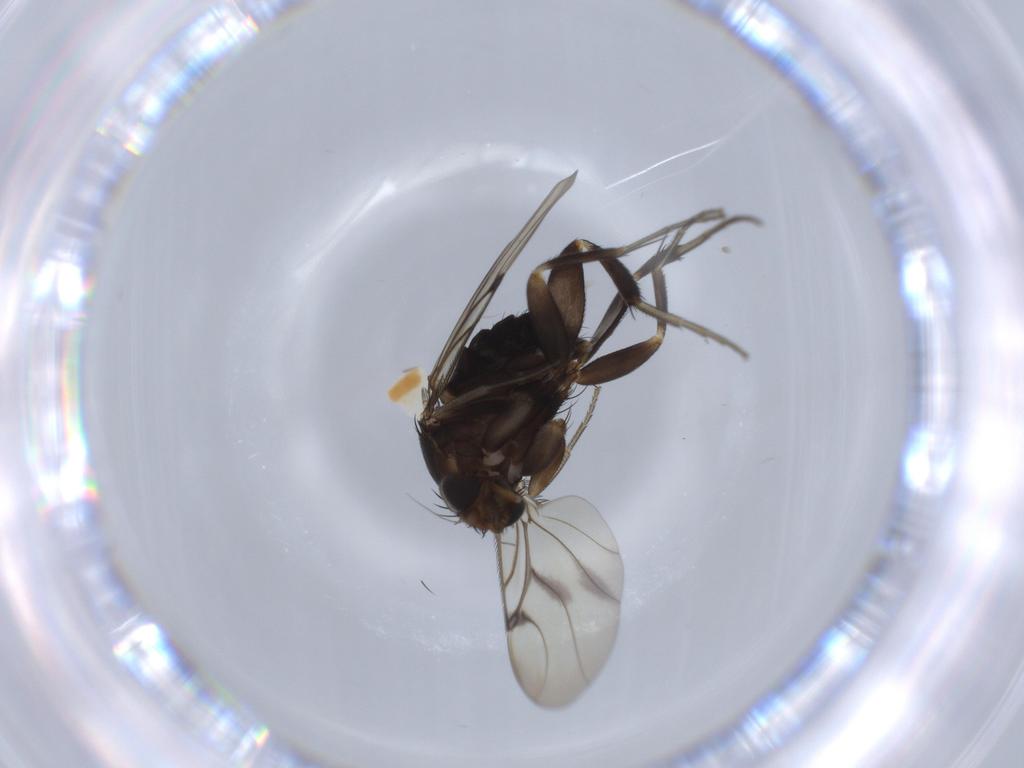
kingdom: Animalia
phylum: Arthropoda
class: Insecta
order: Diptera
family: Phoridae
